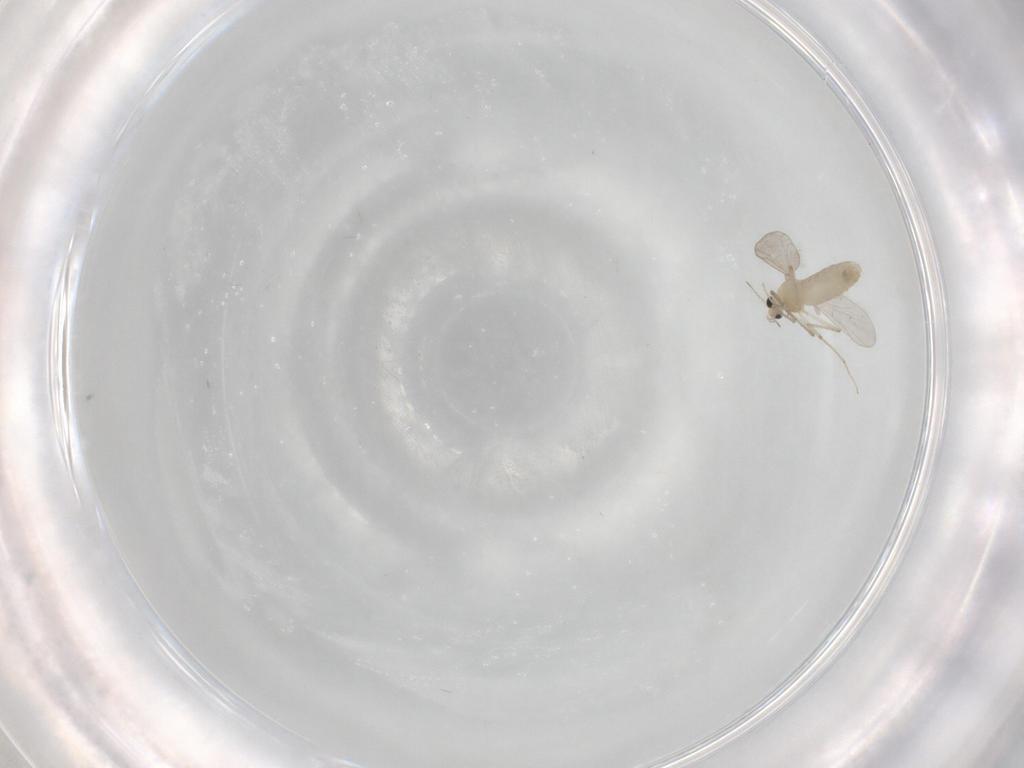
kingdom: Animalia
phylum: Arthropoda
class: Insecta
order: Diptera
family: Chironomidae
